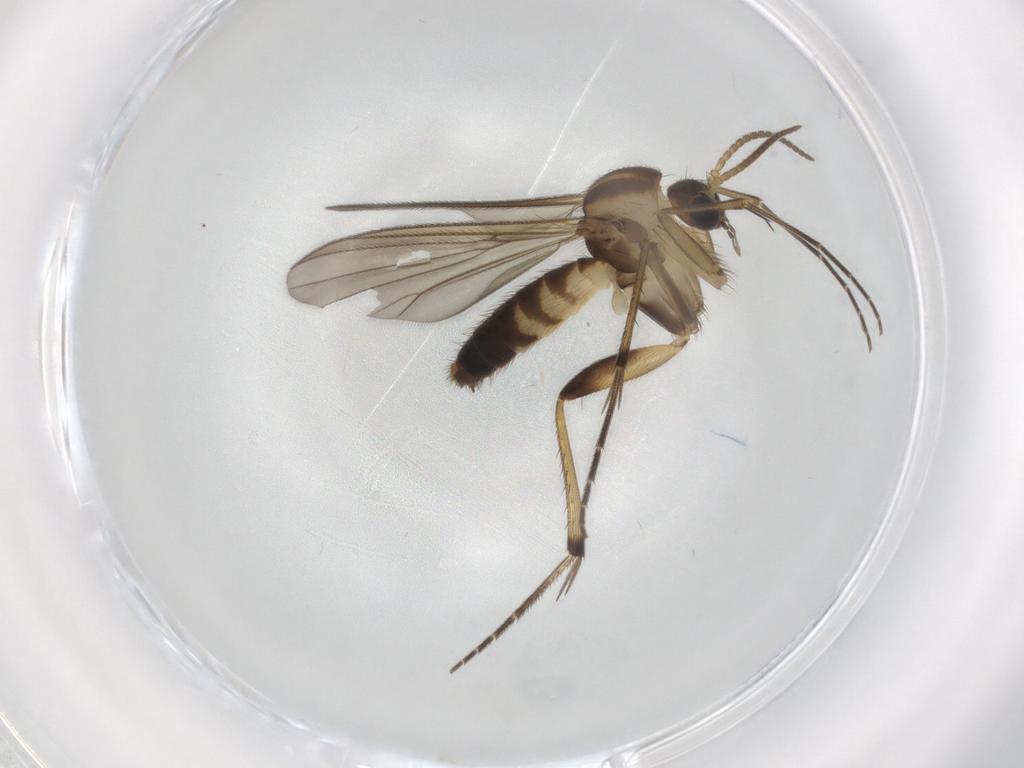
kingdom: Animalia
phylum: Arthropoda
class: Insecta
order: Diptera
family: Mycetophilidae
